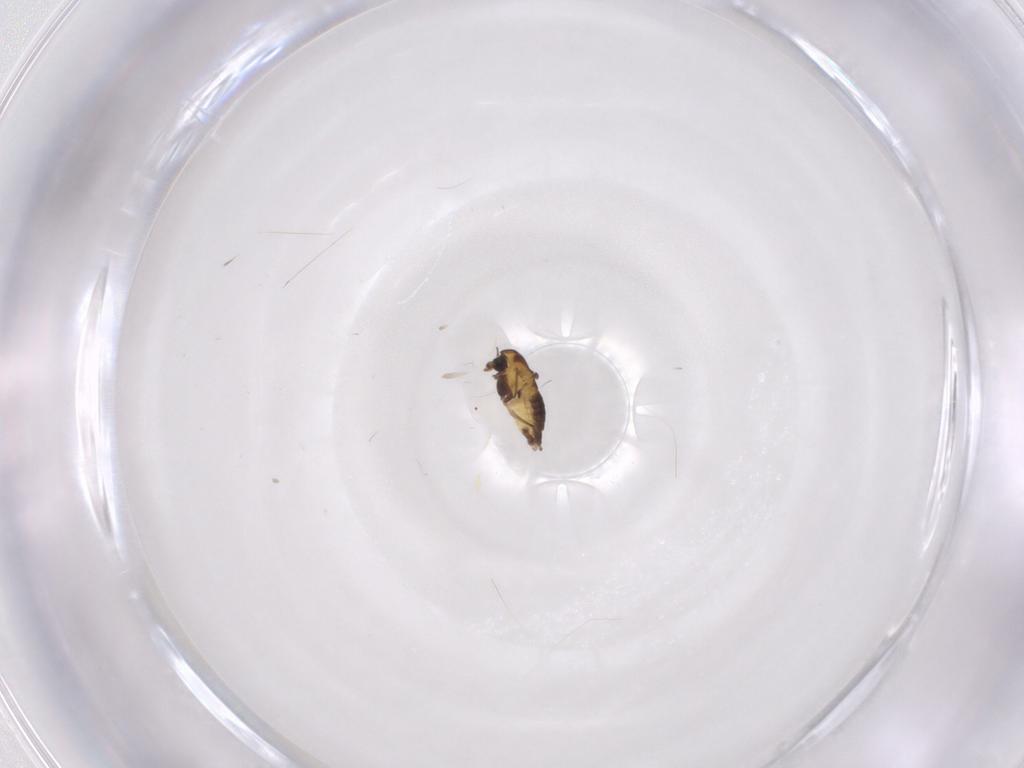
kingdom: Animalia
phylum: Arthropoda
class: Insecta
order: Diptera
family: Chironomidae
